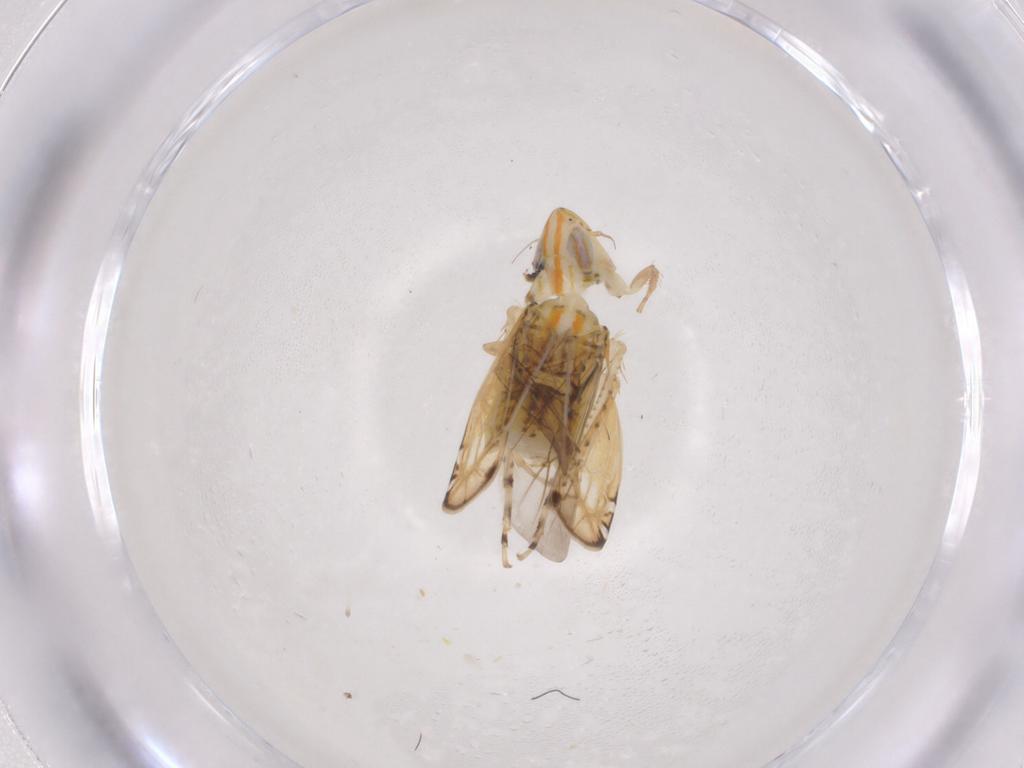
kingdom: Animalia
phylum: Arthropoda
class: Insecta
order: Hemiptera
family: Cicadellidae
